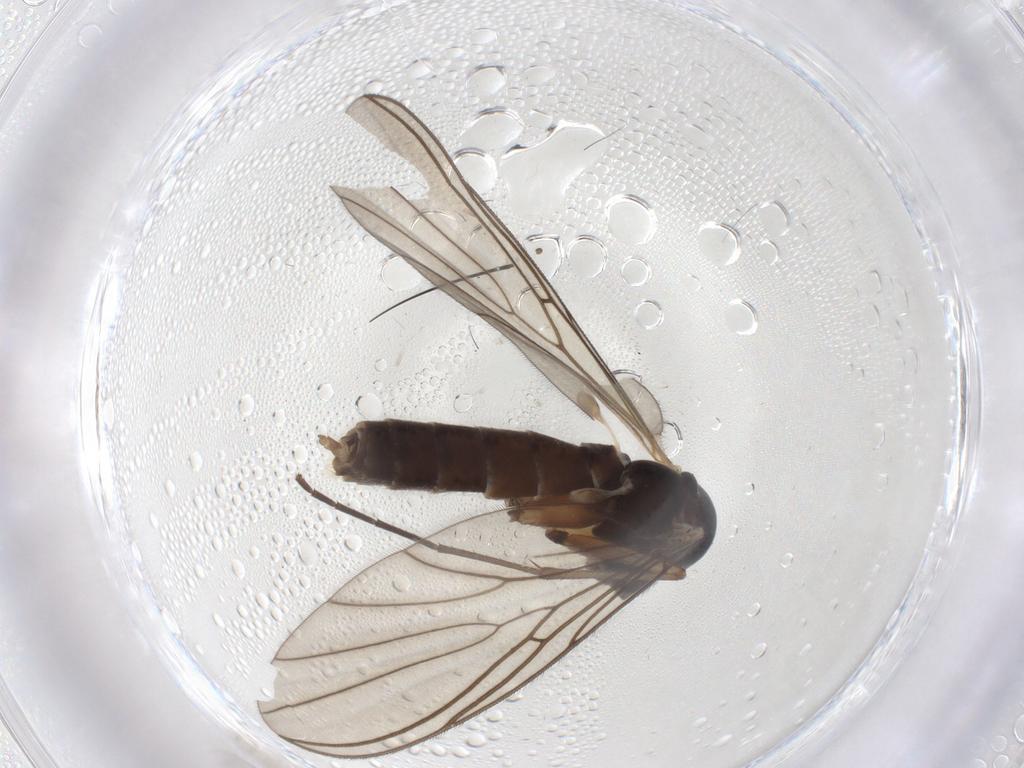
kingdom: Animalia
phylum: Arthropoda
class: Insecta
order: Diptera
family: Mycetophilidae
